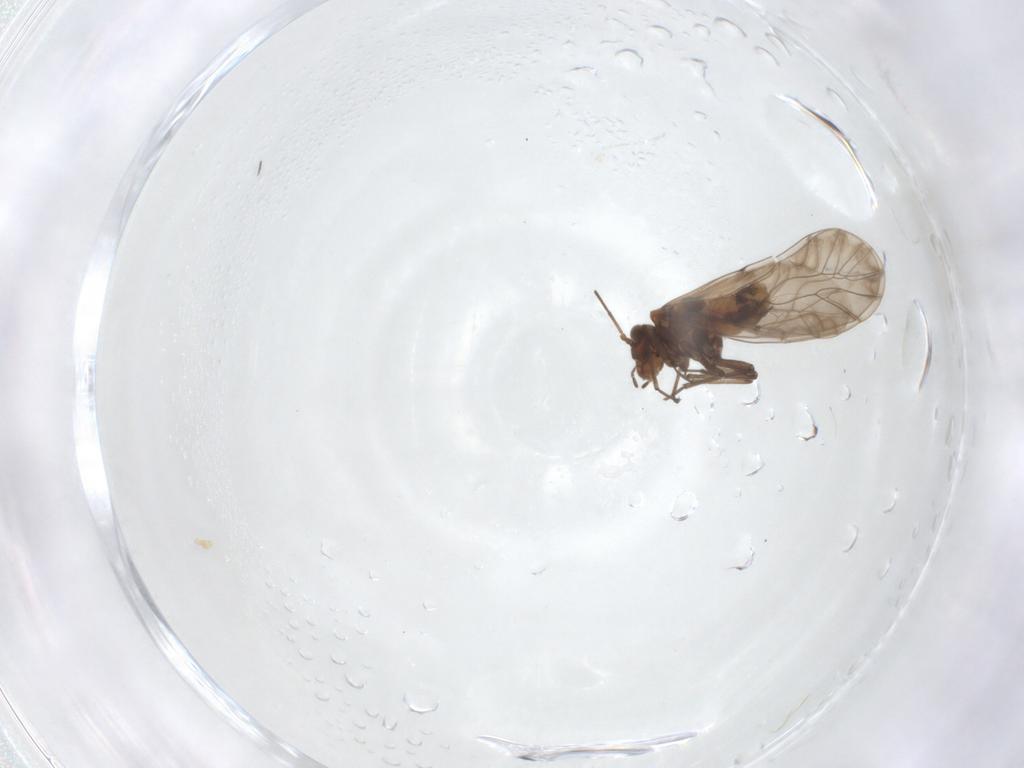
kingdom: Animalia
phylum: Arthropoda
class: Insecta
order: Psocodea
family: Lachesillidae
